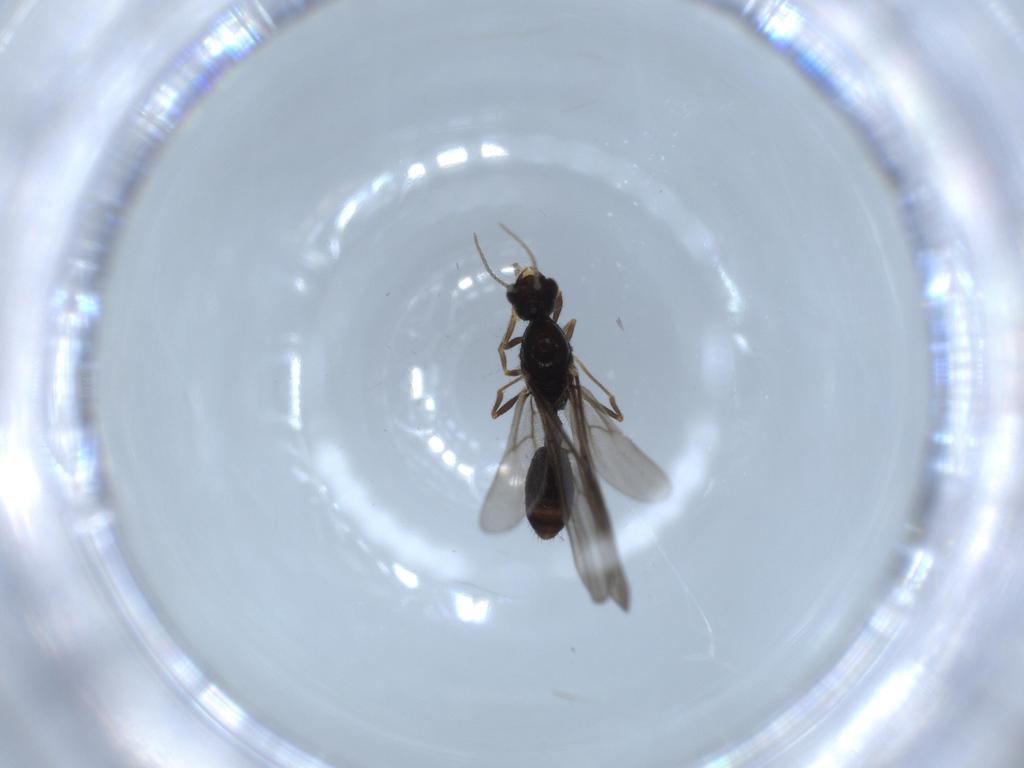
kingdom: Animalia
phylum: Arthropoda
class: Insecta
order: Hymenoptera
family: Formicidae
